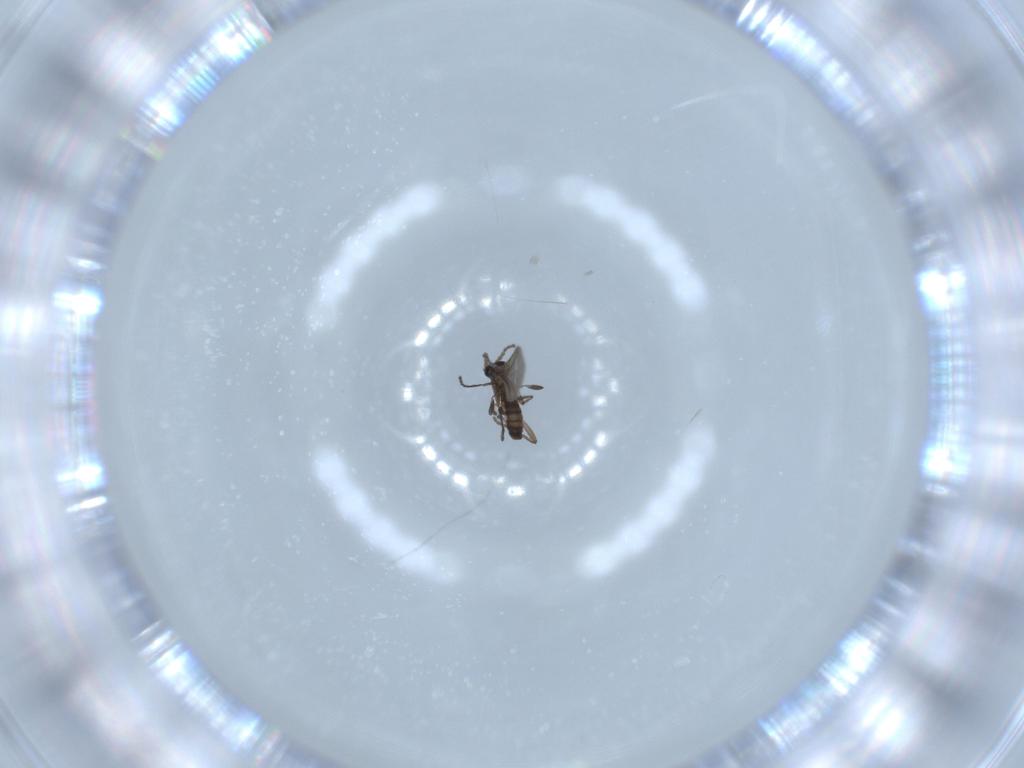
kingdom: Animalia
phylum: Arthropoda
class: Insecta
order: Diptera
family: Sciaridae
